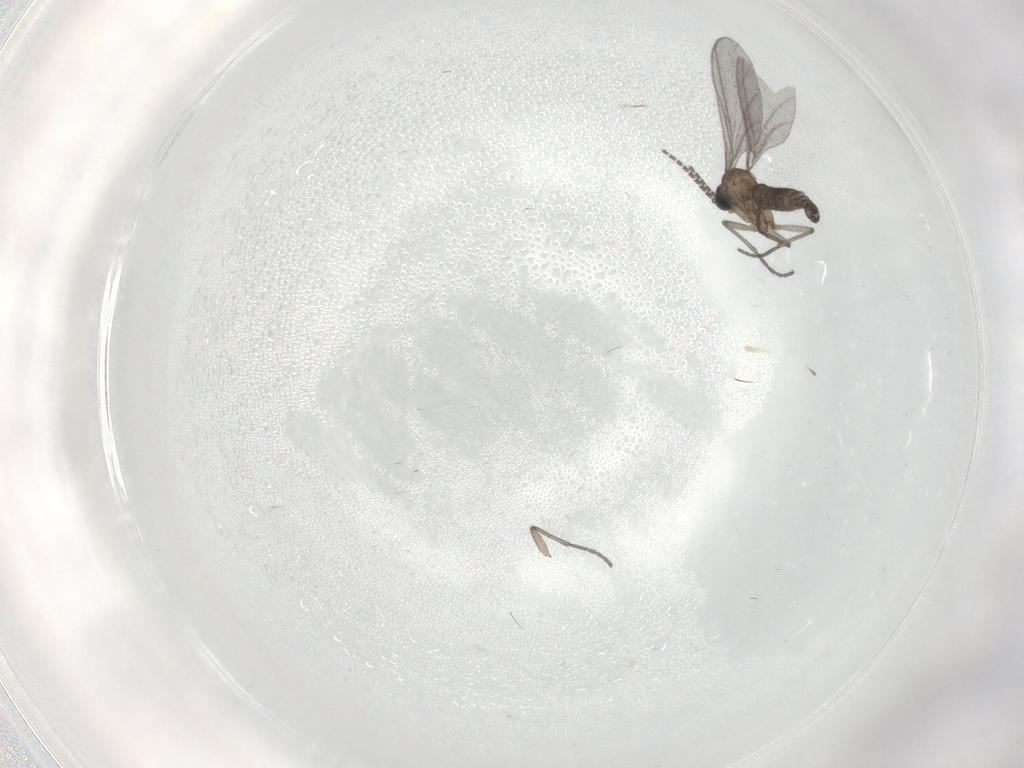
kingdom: Animalia
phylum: Arthropoda
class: Insecta
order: Diptera
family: Sciaridae
